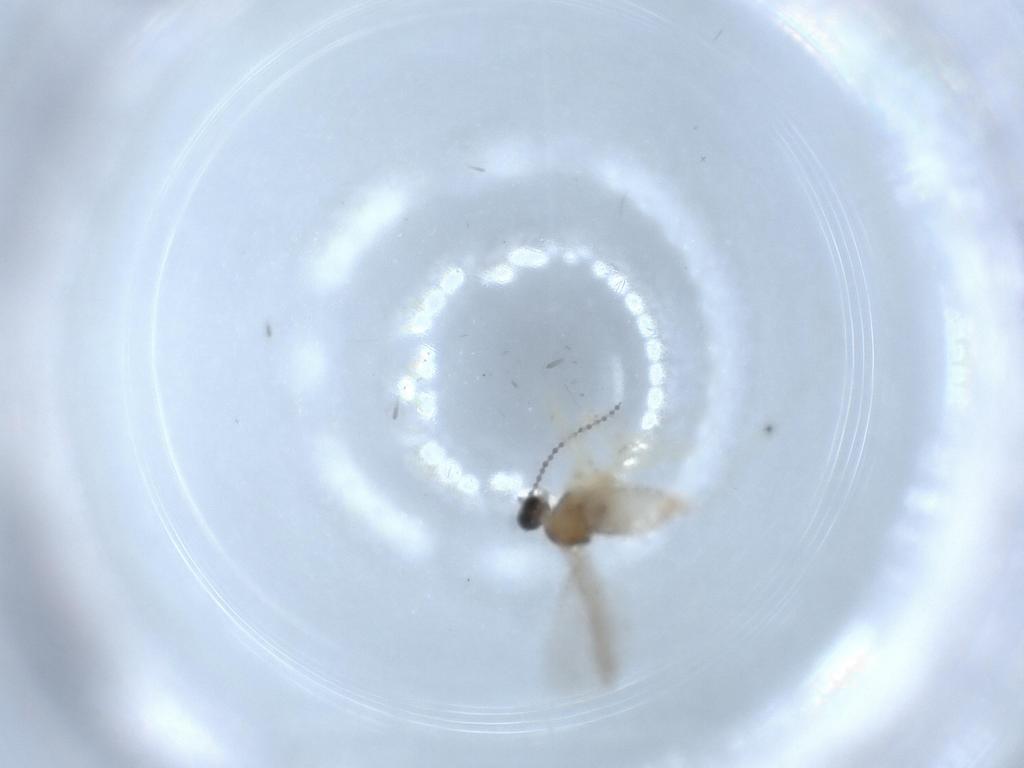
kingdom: Animalia
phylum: Arthropoda
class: Insecta
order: Diptera
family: Cecidomyiidae
